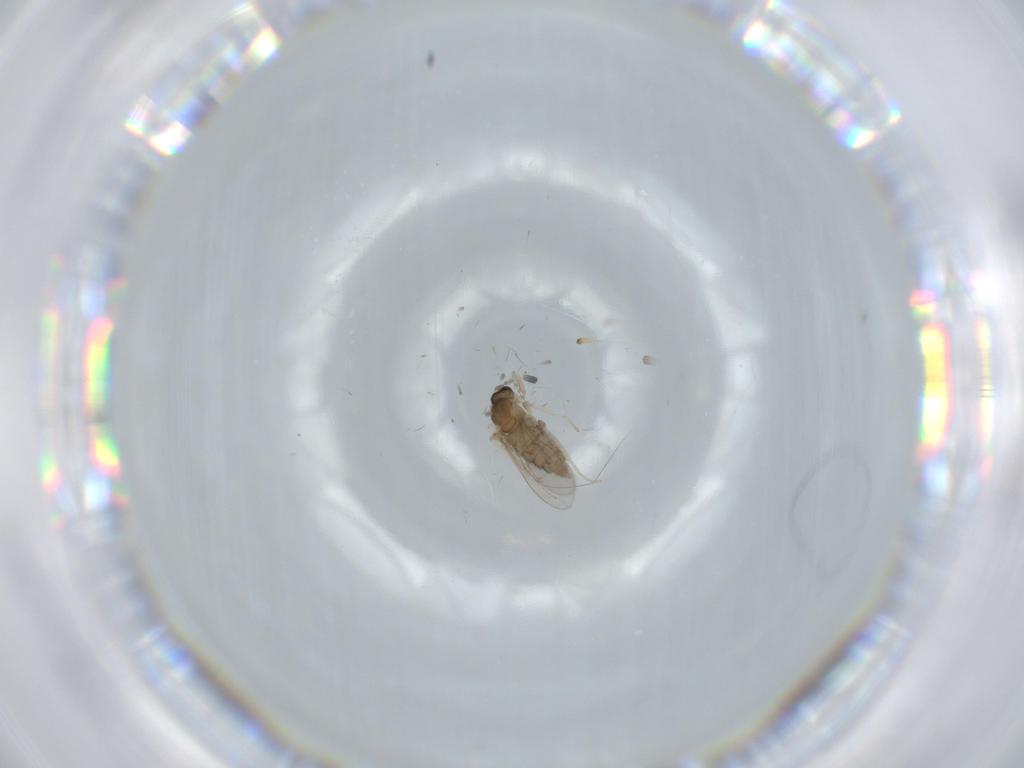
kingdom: Animalia
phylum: Arthropoda
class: Insecta
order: Diptera
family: Cecidomyiidae
